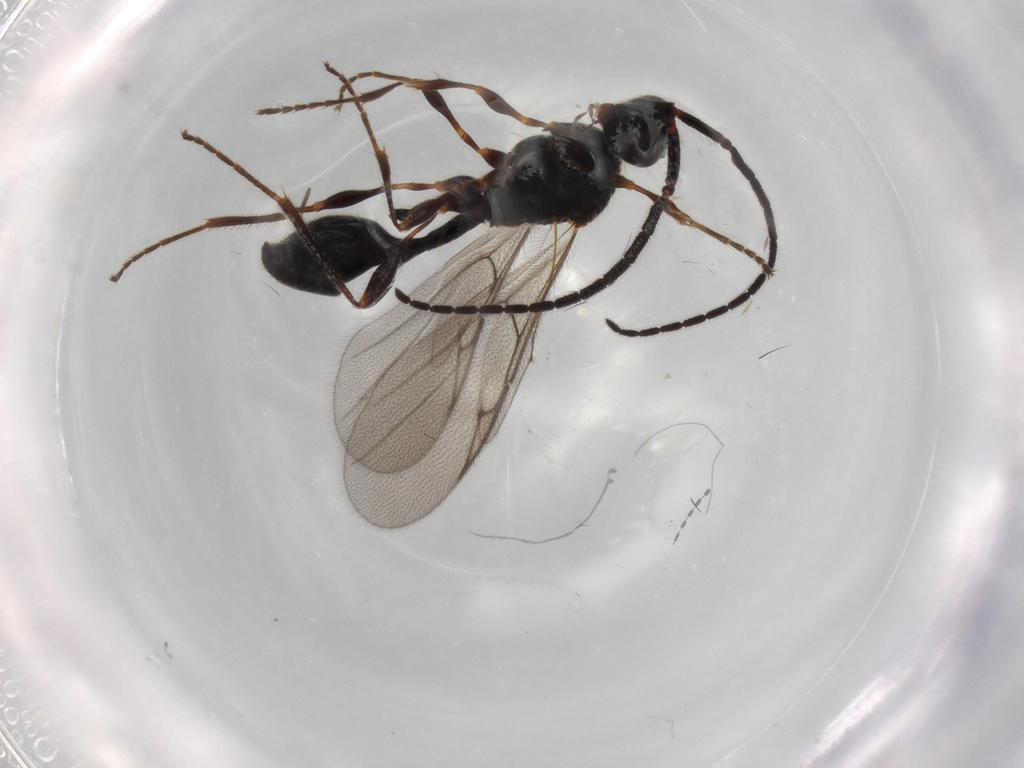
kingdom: Animalia
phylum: Arthropoda
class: Insecta
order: Hymenoptera
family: Diapriidae
